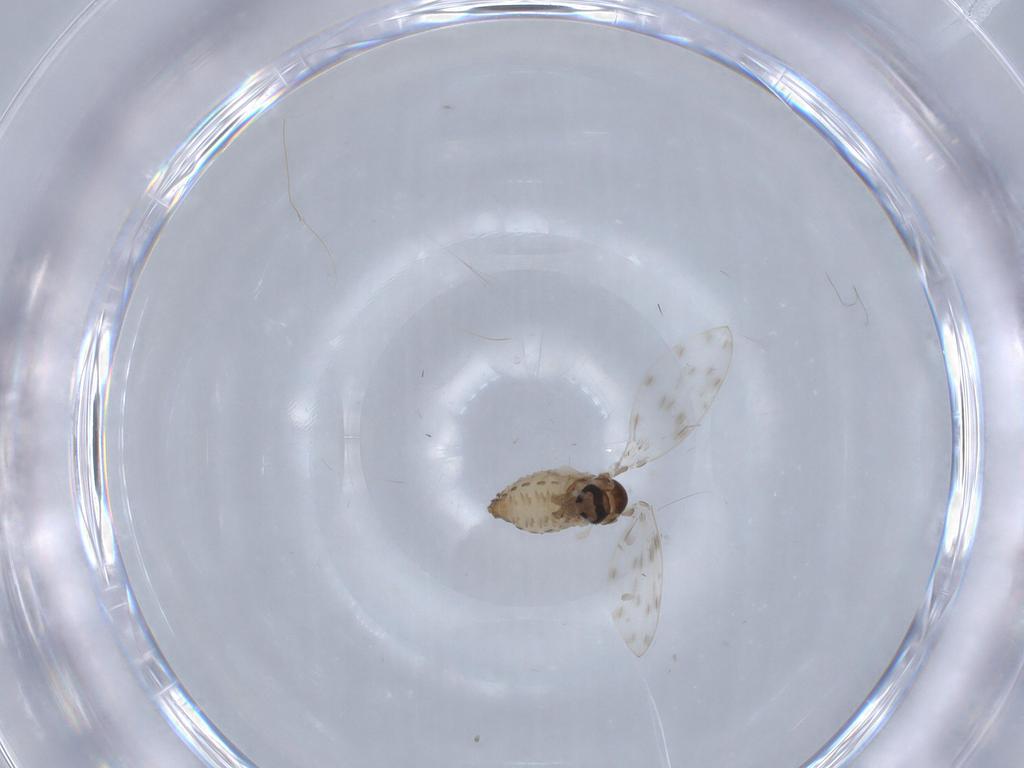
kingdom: Animalia
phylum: Arthropoda
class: Insecta
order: Diptera
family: Psychodidae
